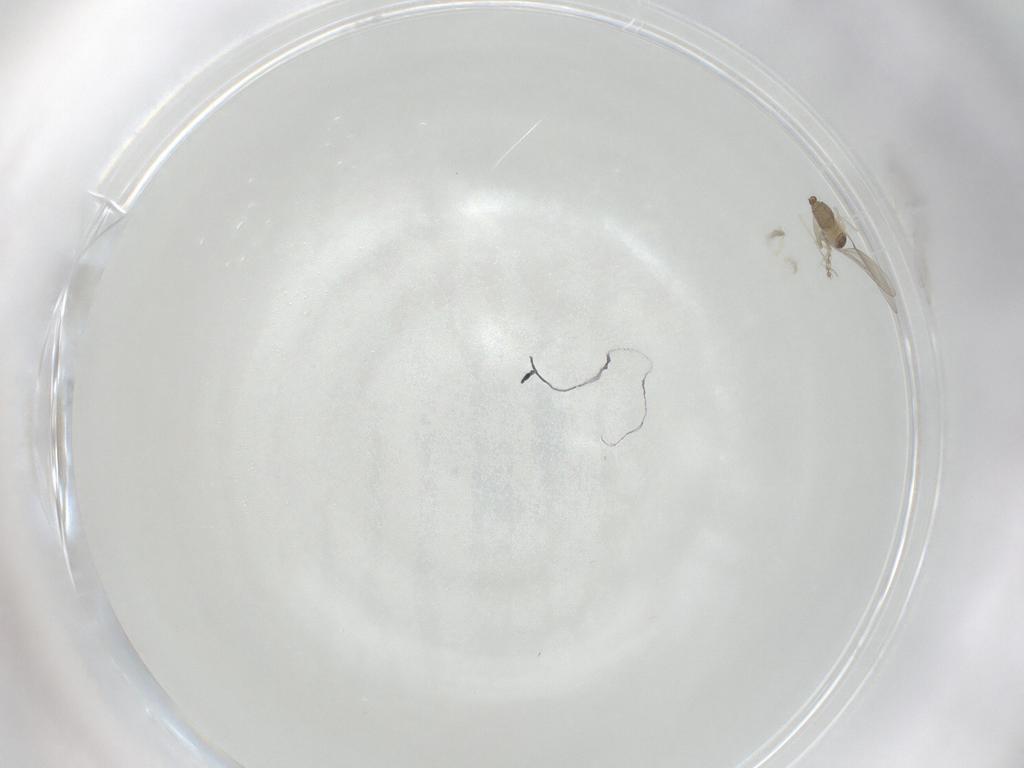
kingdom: Animalia
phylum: Arthropoda
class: Insecta
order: Diptera
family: Cecidomyiidae
